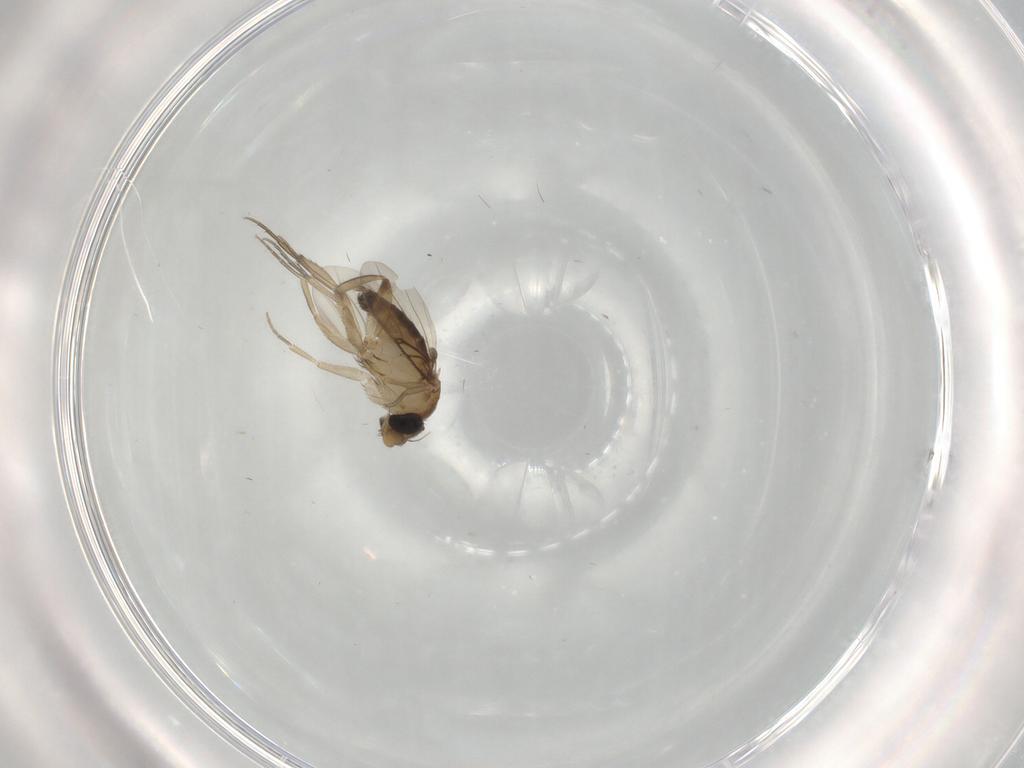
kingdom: Animalia
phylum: Arthropoda
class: Insecta
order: Diptera
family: Phoridae
